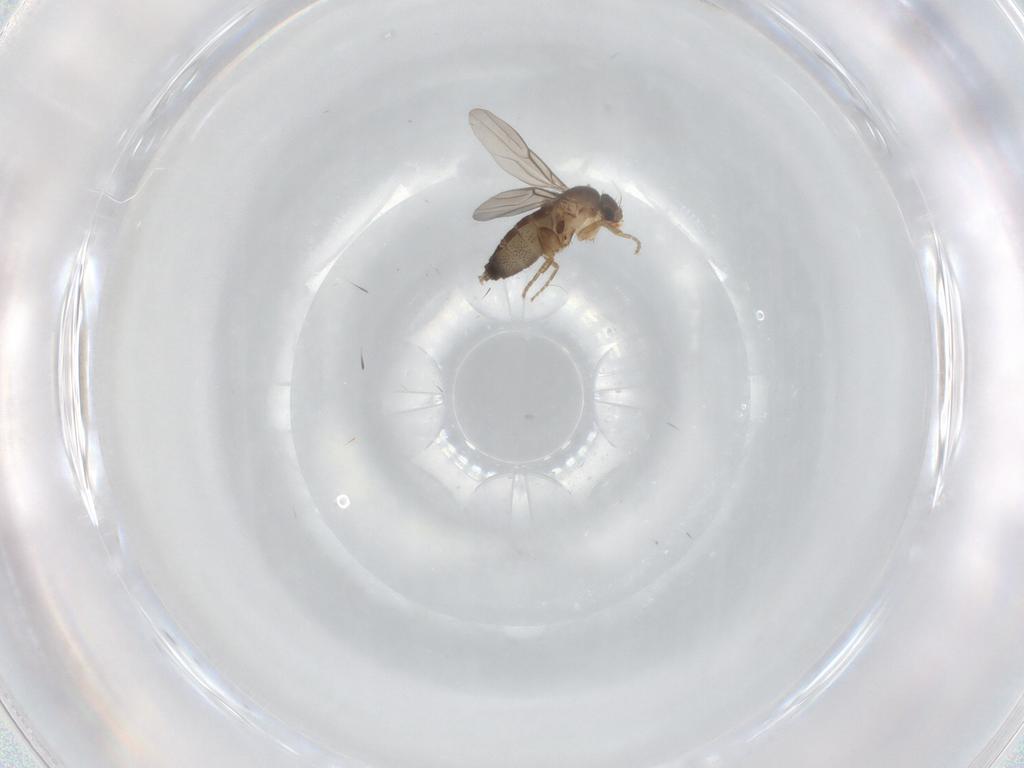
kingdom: Animalia
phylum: Arthropoda
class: Insecta
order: Diptera
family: Phoridae
